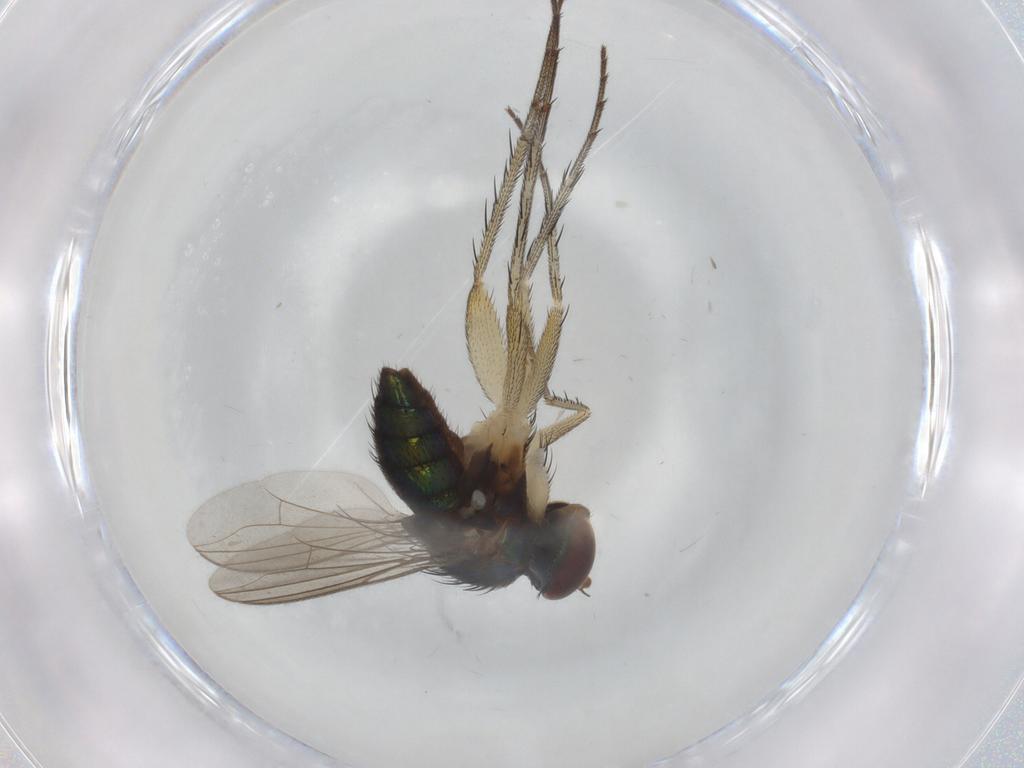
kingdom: Animalia
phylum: Arthropoda
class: Insecta
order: Diptera
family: Dolichopodidae
